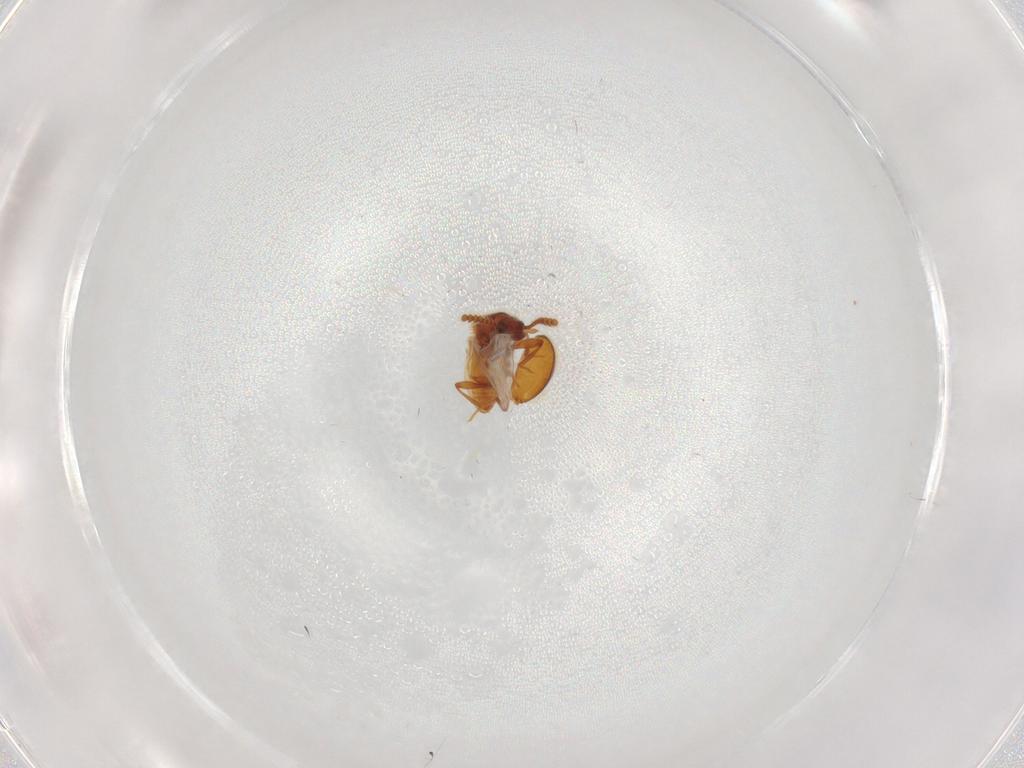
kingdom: Animalia
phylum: Arthropoda
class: Insecta
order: Coleoptera
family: Staphylinidae
